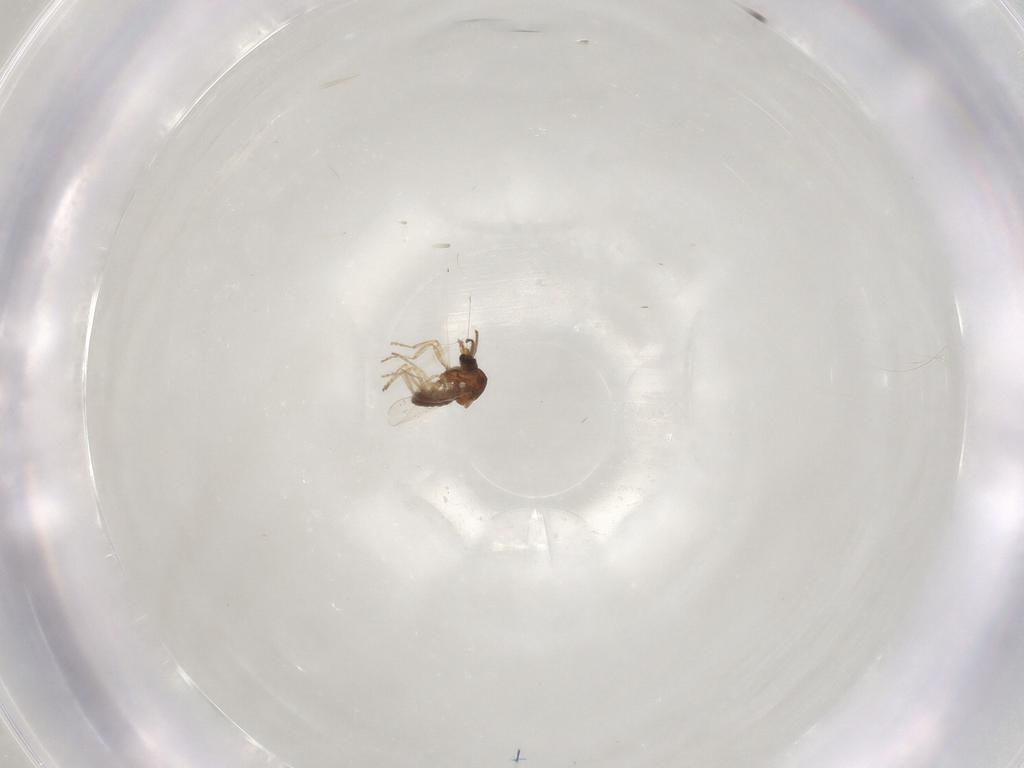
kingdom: Animalia
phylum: Arthropoda
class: Insecta
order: Diptera
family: Ceratopogonidae
